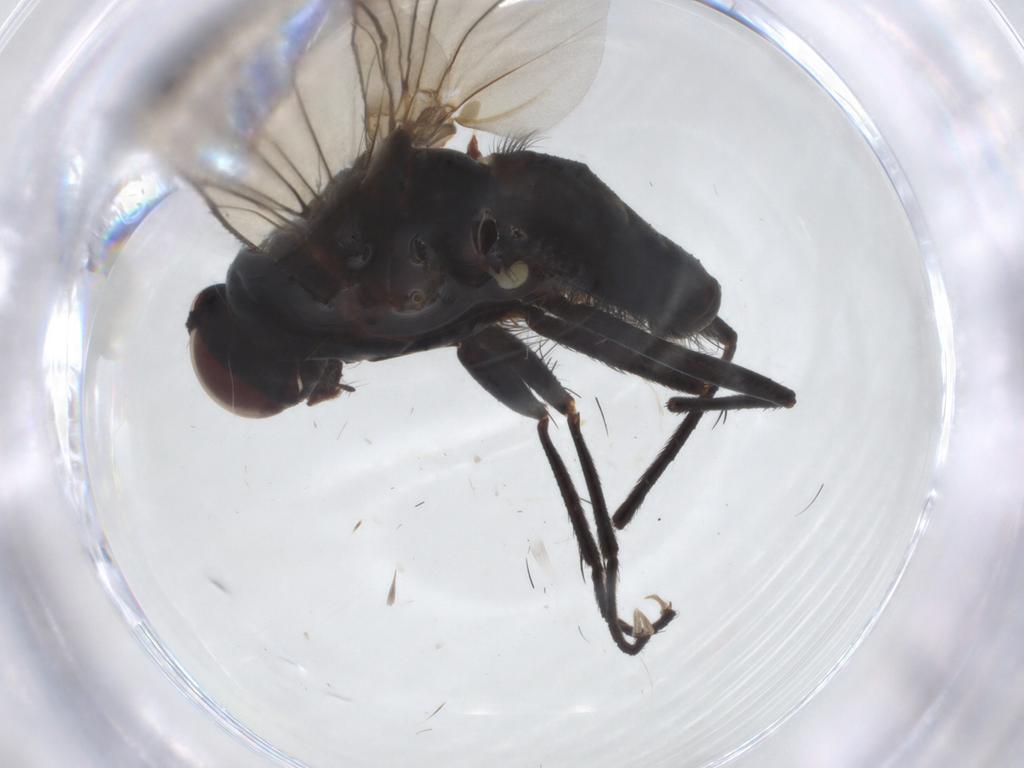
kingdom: Animalia
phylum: Arthropoda
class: Insecta
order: Diptera
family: Anthomyiidae
